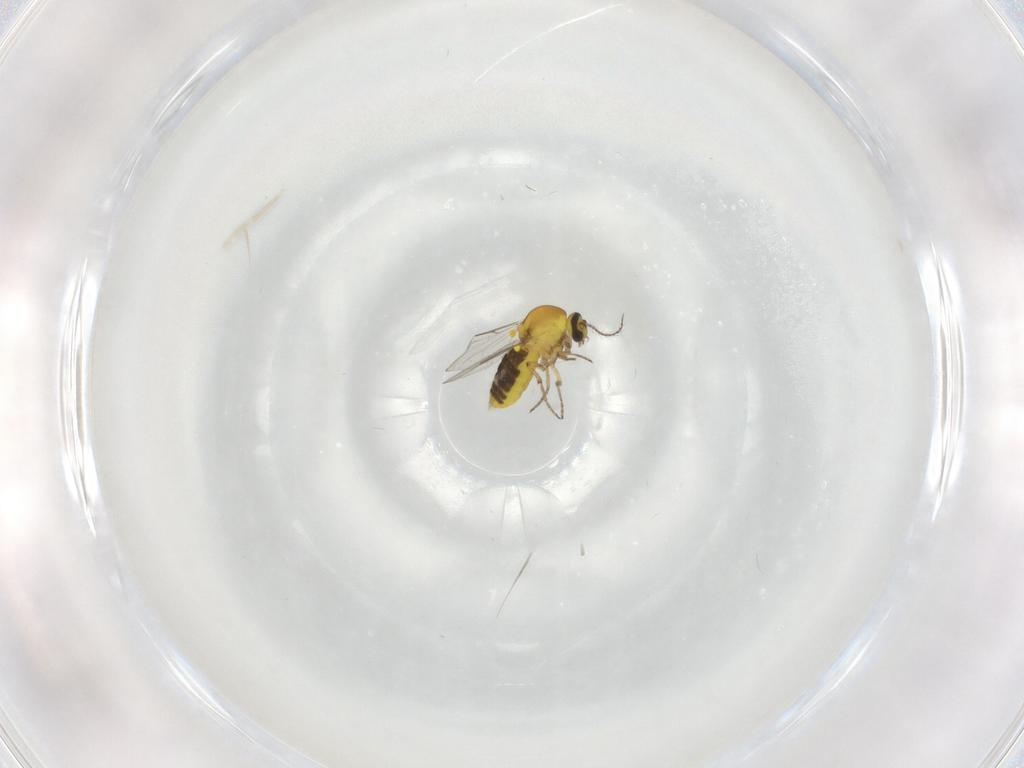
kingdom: Animalia
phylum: Arthropoda
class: Insecta
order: Diptera
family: Ceratopogonidae
